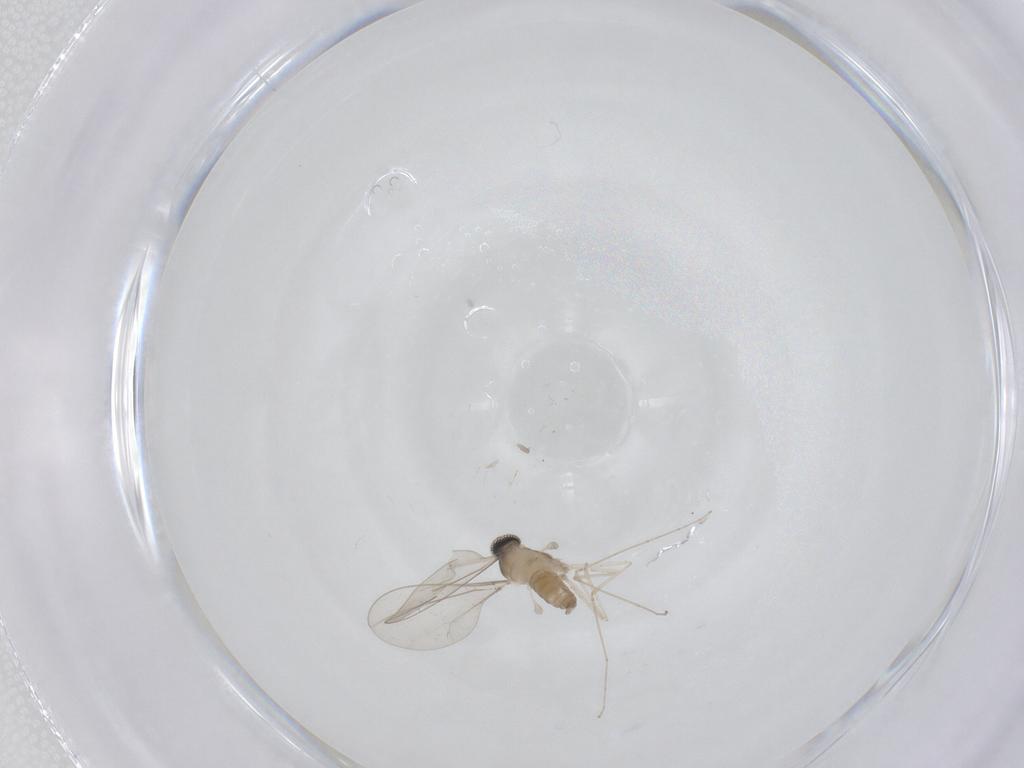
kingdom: Animalia
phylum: Arthropoda
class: Insecta
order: Diptera
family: Cecidomyiidae
